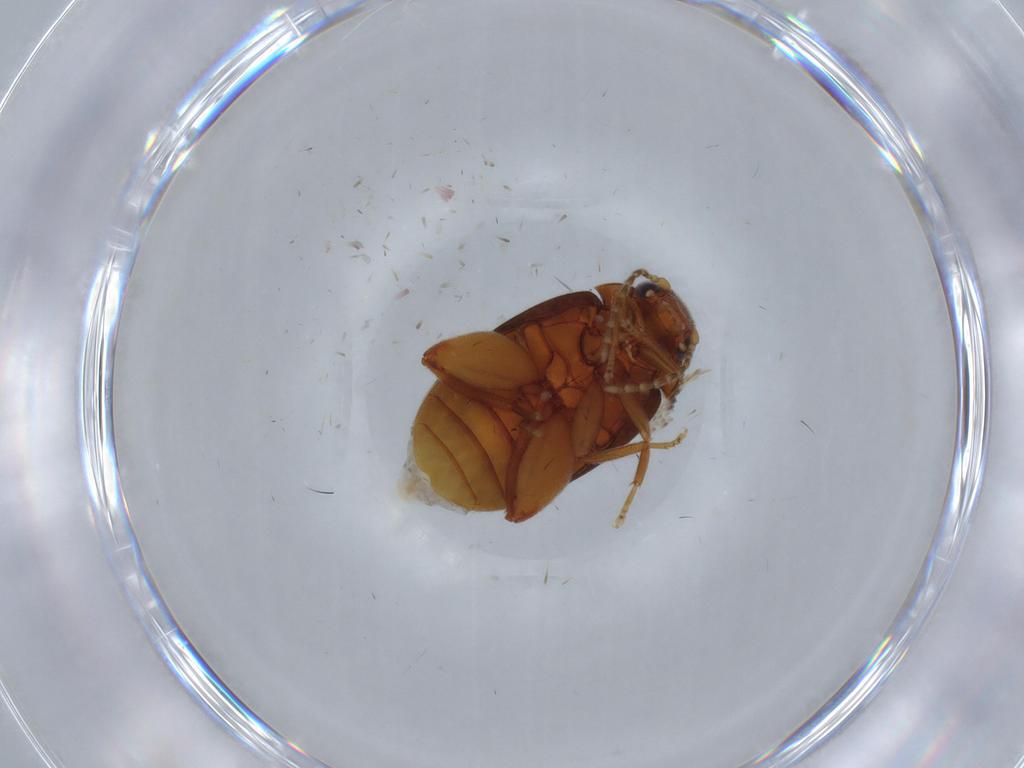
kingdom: Animalia
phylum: Arthropoda
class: Insecta
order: Coleoptera
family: Scirtidae
